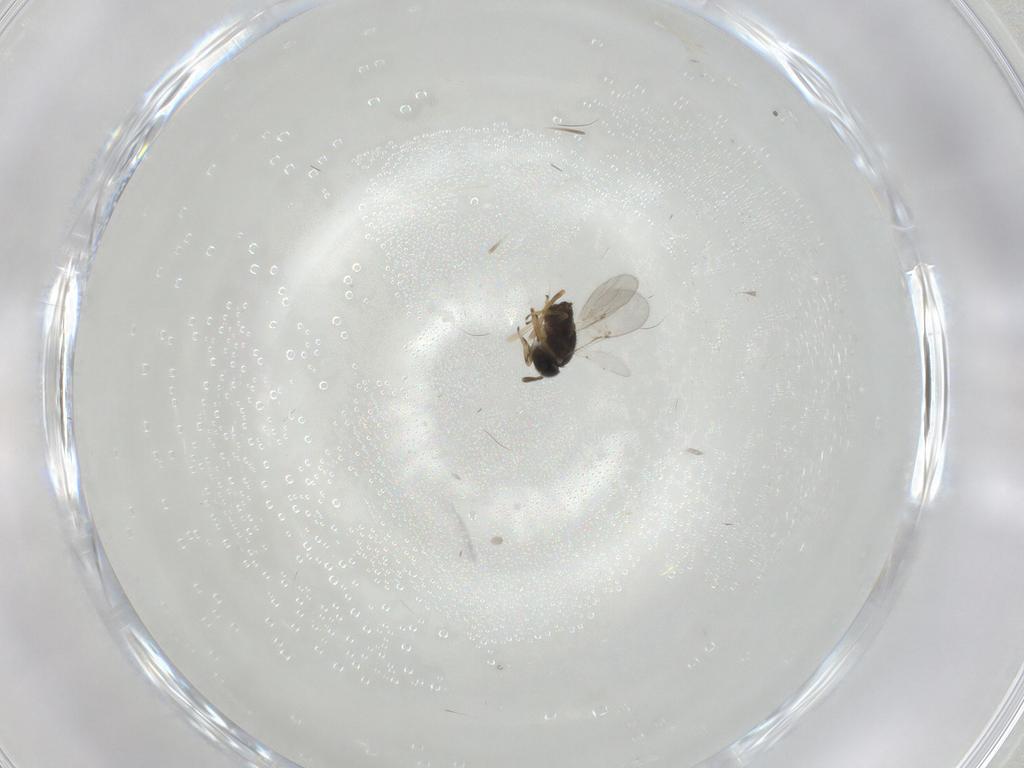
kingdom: Animalia
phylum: Arthropoda
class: Insecta
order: Hymenoptera
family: Encyrtidae
